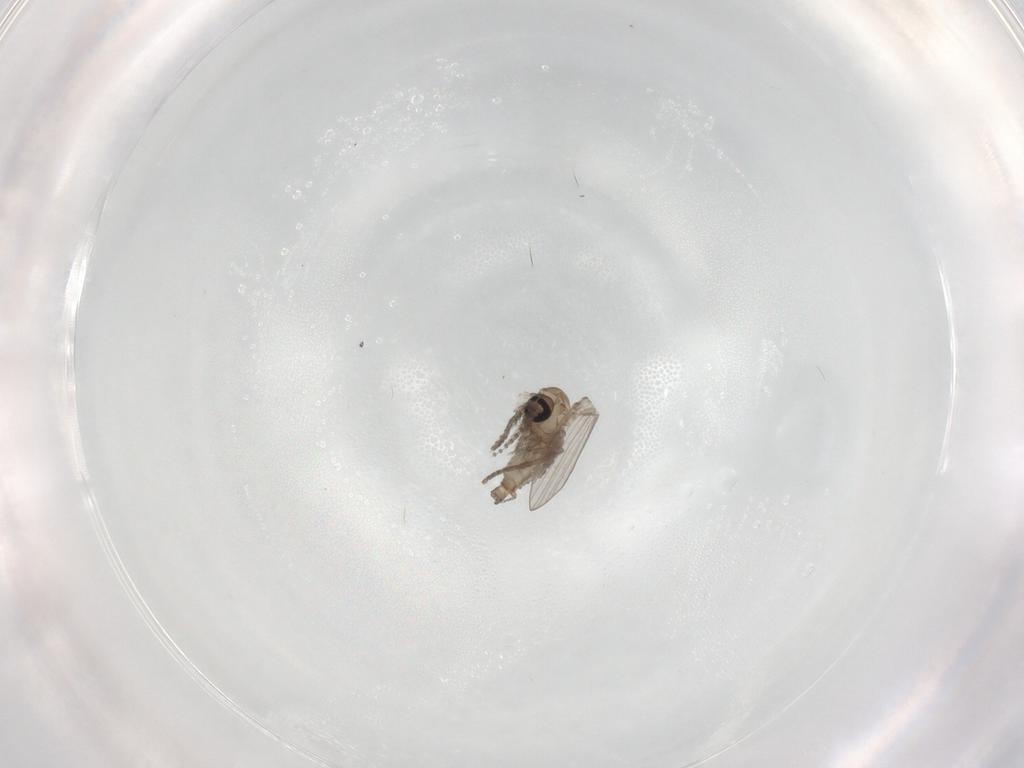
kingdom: Animalia
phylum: Arthropoda
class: Insecta
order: Diptera
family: Psychodidae
